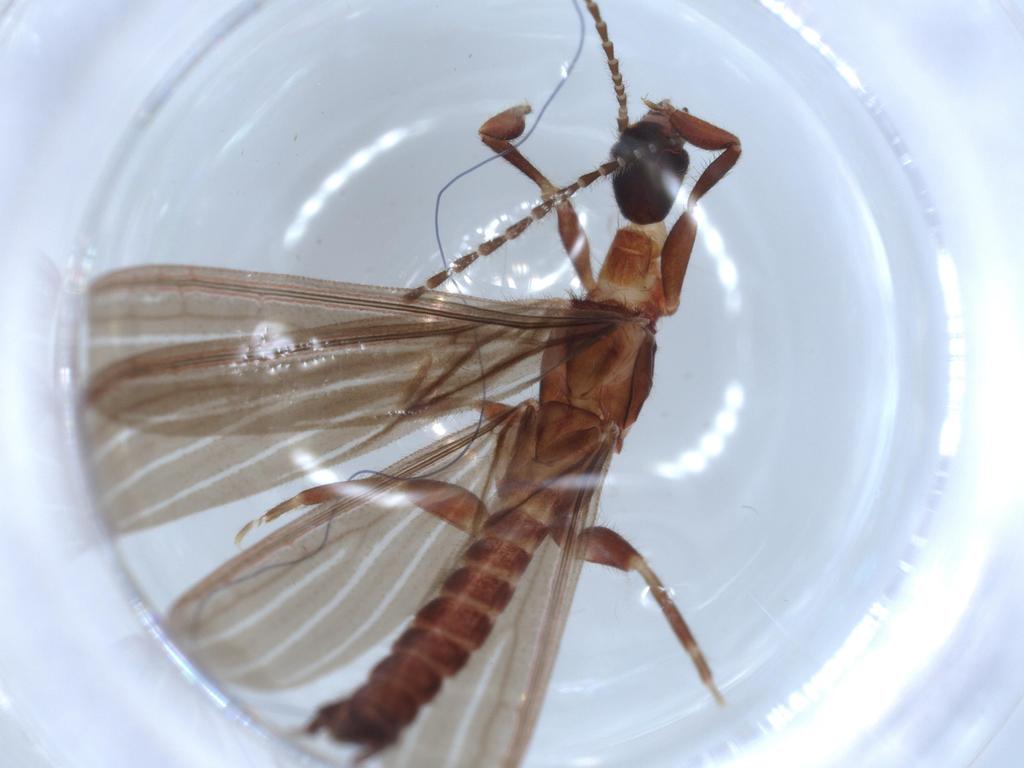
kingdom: Animalia
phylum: Arthropoda
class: Insecta
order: Embioptera
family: Anisembiidae
